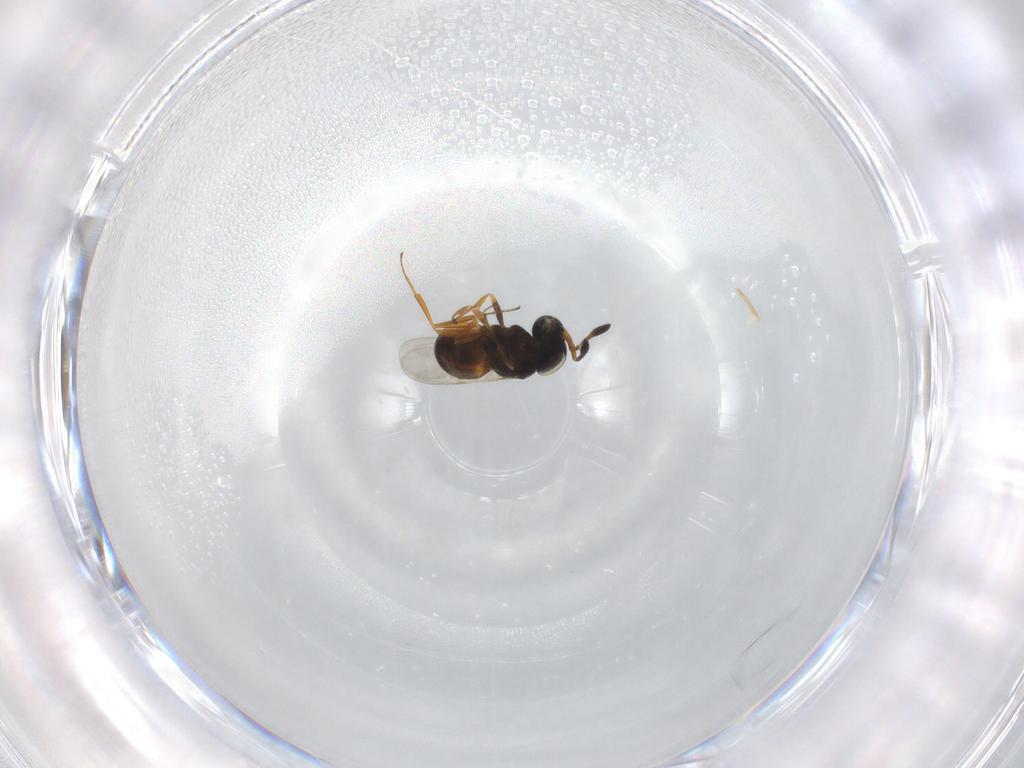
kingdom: Animalia
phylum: Arthropoda
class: Insecta
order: Hymenoptera
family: Scelionidae
